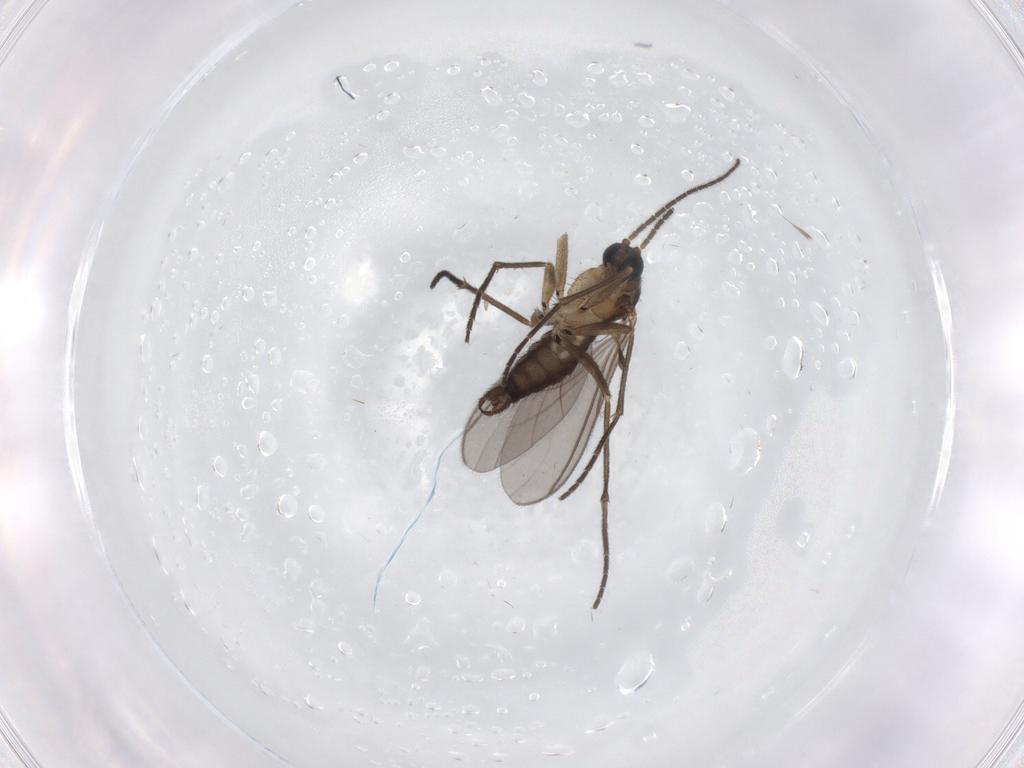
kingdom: Animalia
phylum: Arthropoda
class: Insecta
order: Diptera
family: Sciaridae
